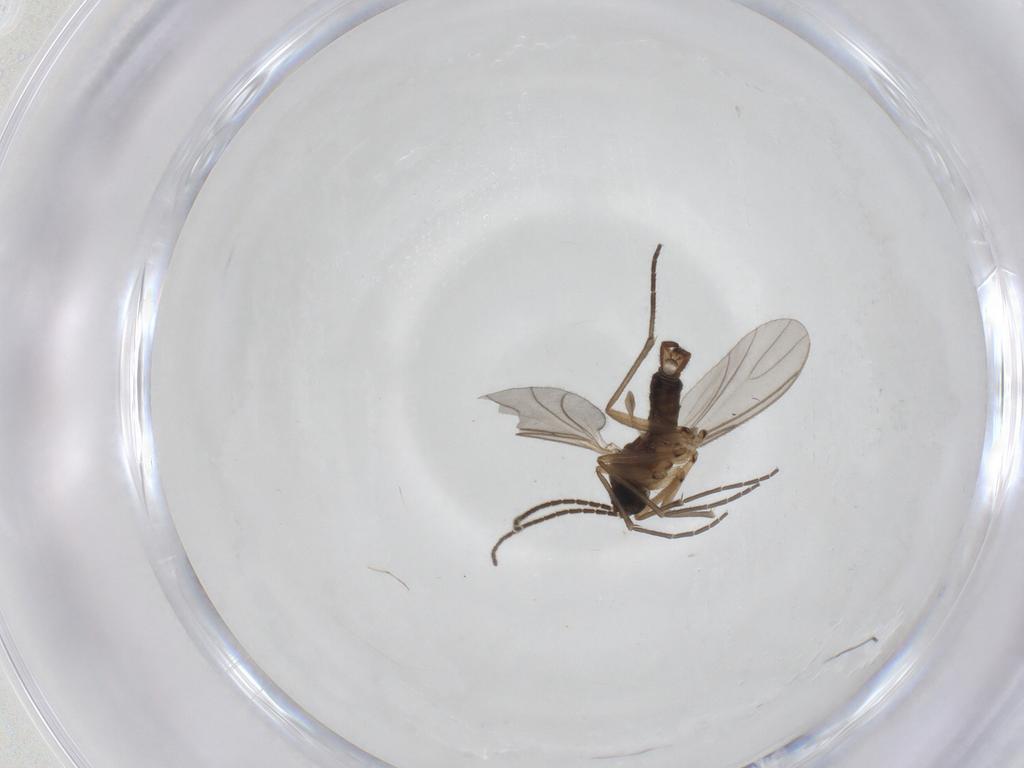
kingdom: Animalia
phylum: Arthropoda
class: Insecta
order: Diptera
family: Sciaridae
